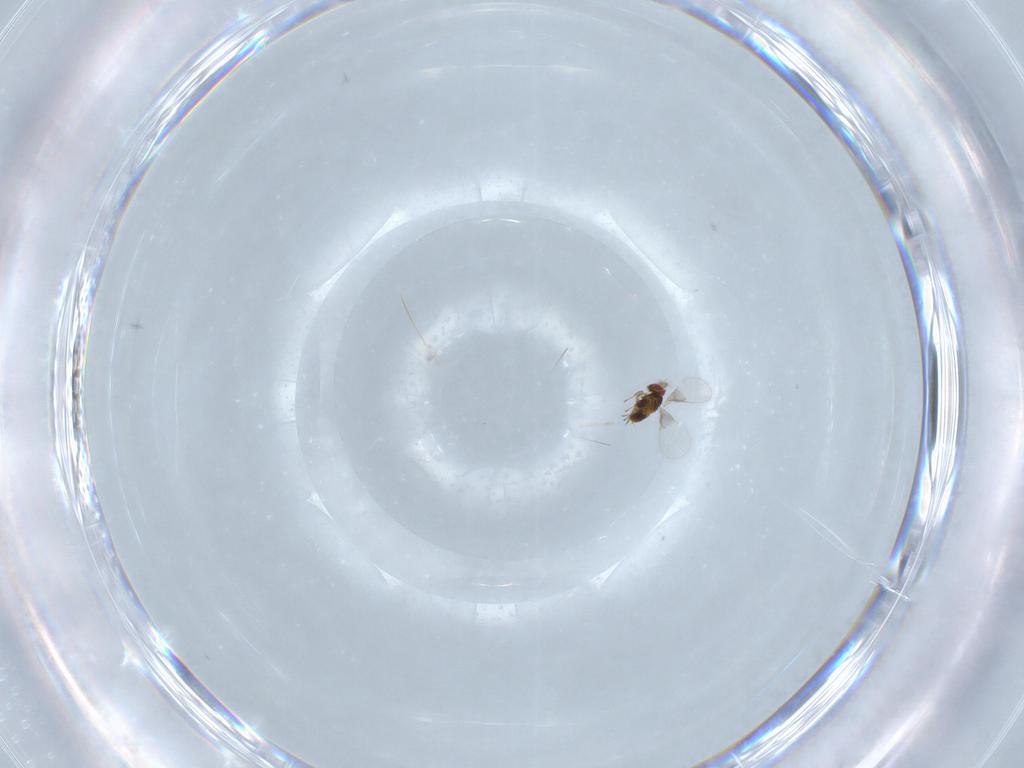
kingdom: Animalia
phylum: Arthropoda
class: Insecta
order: Hymenoptera
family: Trichogrammatidae
